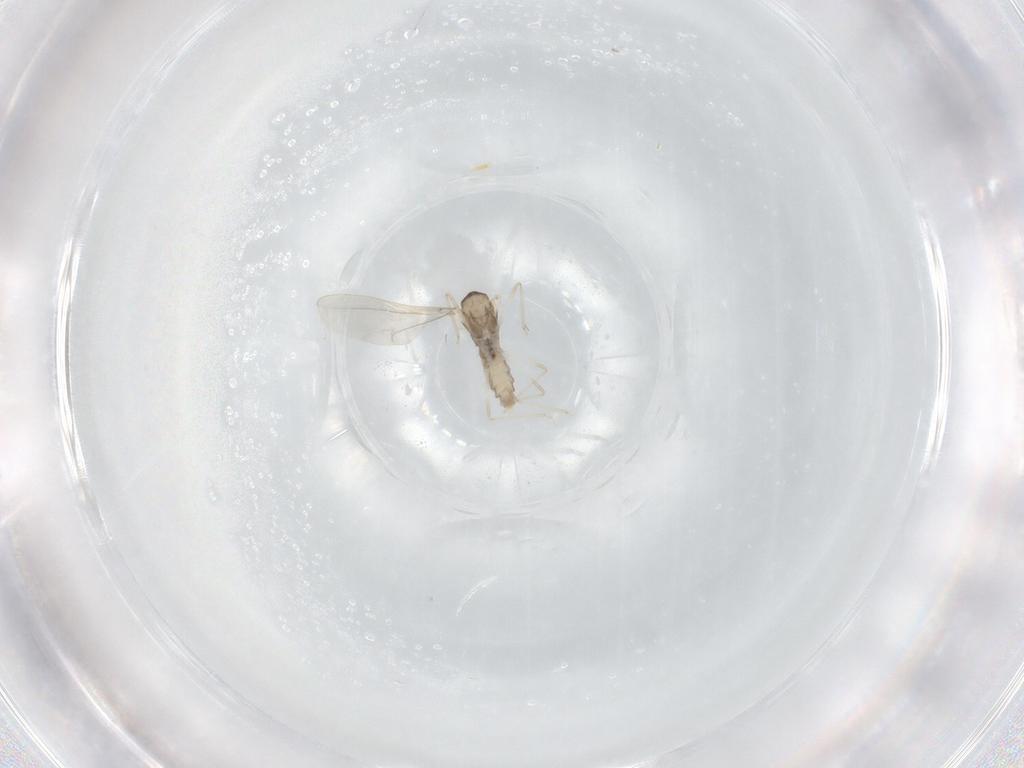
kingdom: Animalia
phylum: Arthropoda
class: Insecta
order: Diptera
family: Cecidomyiidae
